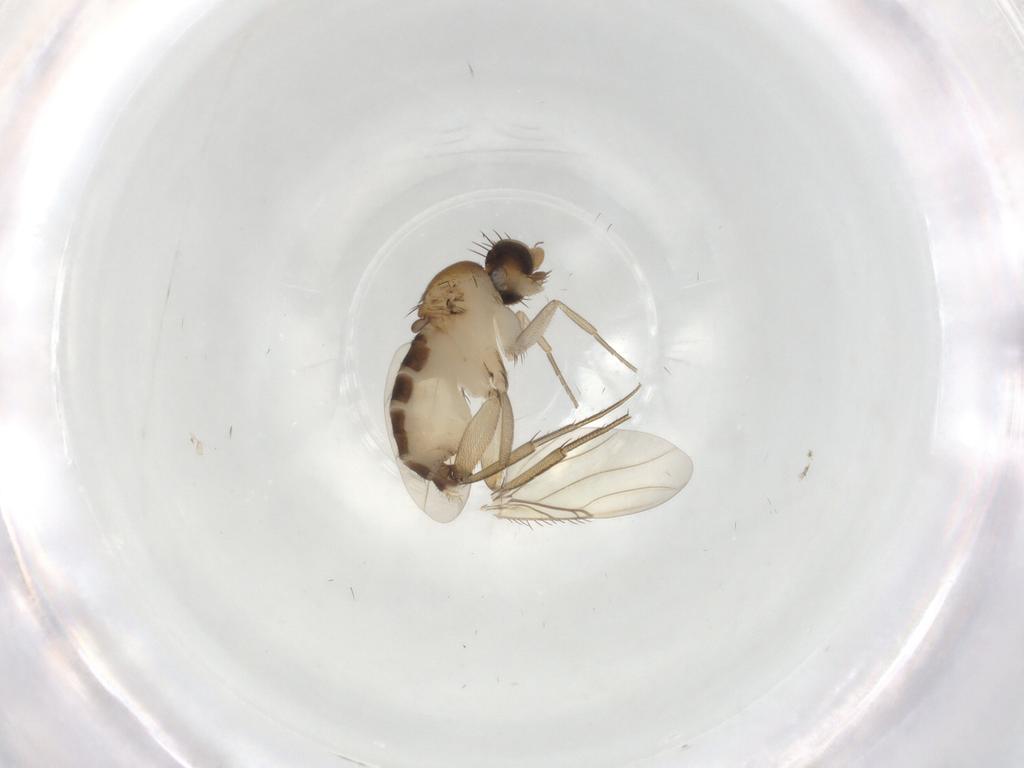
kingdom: Animalia
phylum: Arthropoda
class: Insecta
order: Diptera
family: Phoridae
